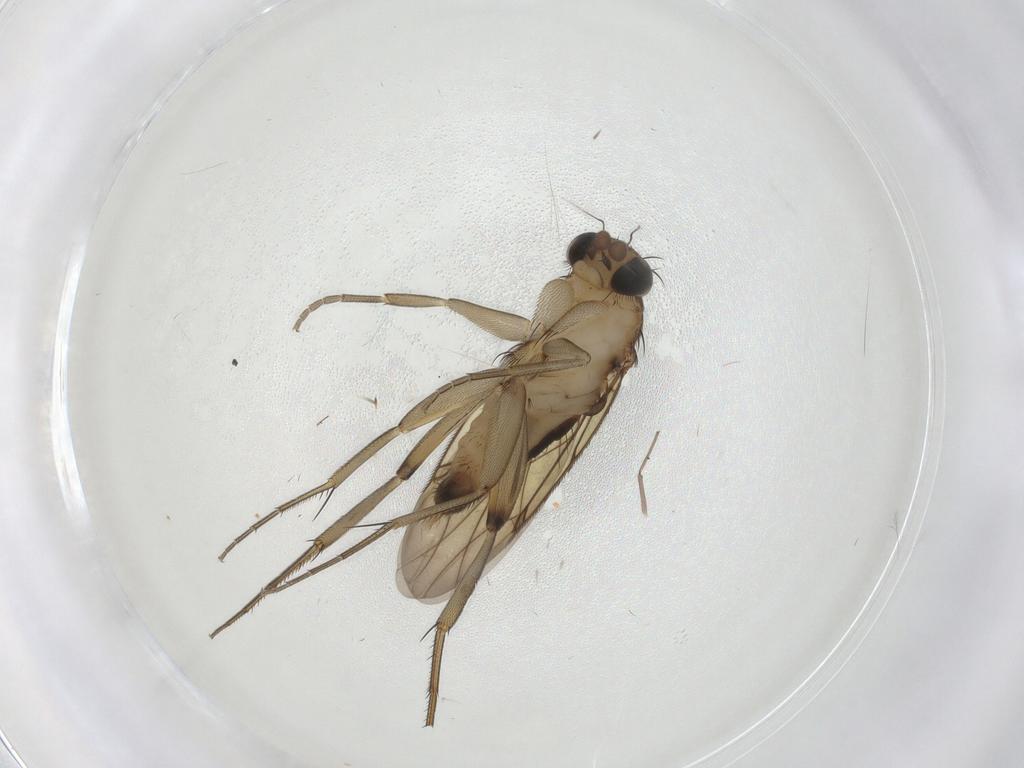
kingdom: Animalia
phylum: Arthropoda
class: Insecta
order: Diptera
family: Phoridae
